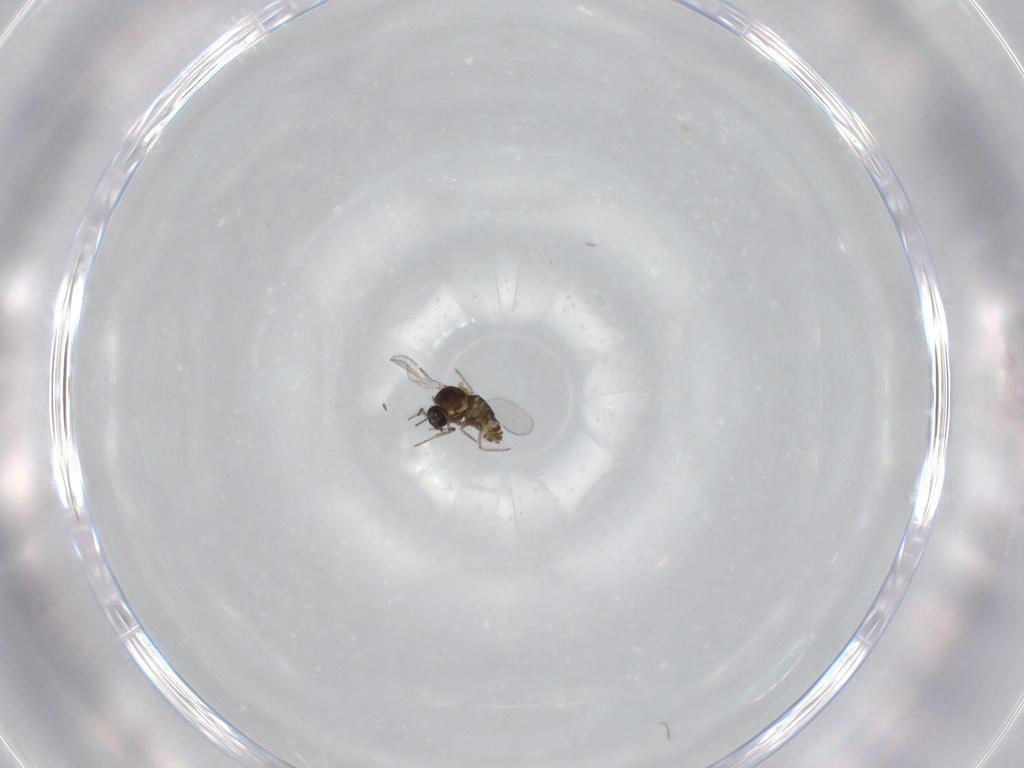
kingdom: Animalia
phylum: Arthropoda
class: Insecta
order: Diptera
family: Ceratopogonidae
